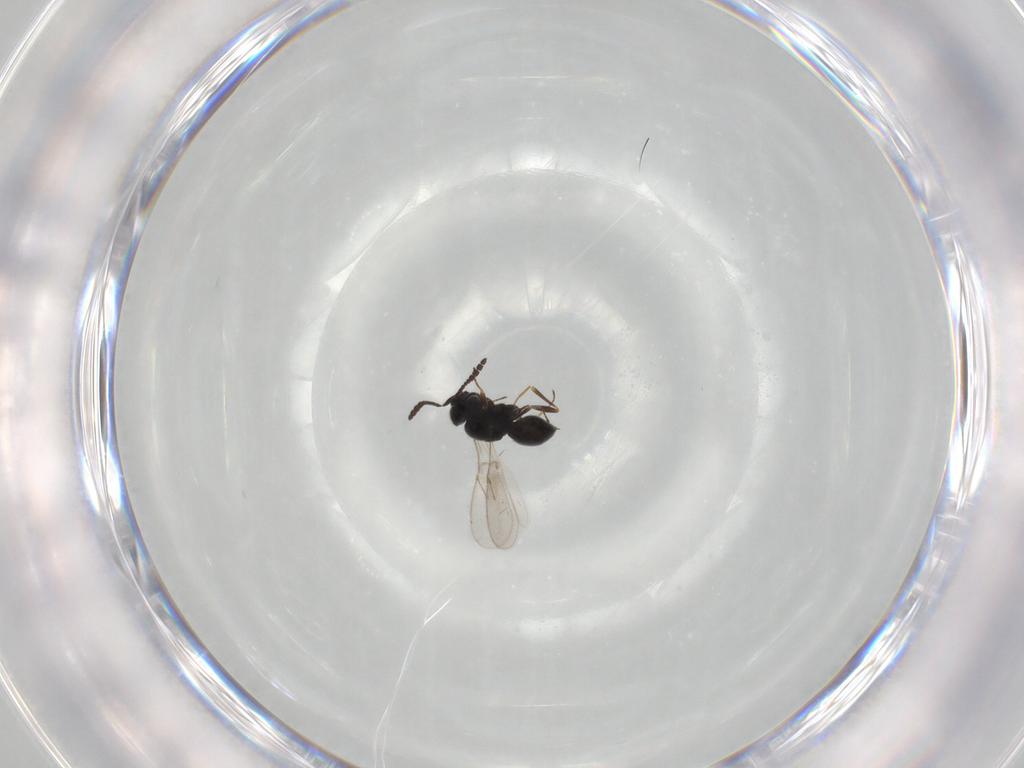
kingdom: Animalia
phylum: Arthropoda
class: Insecta
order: Hymenoptera
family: Scelionidae
